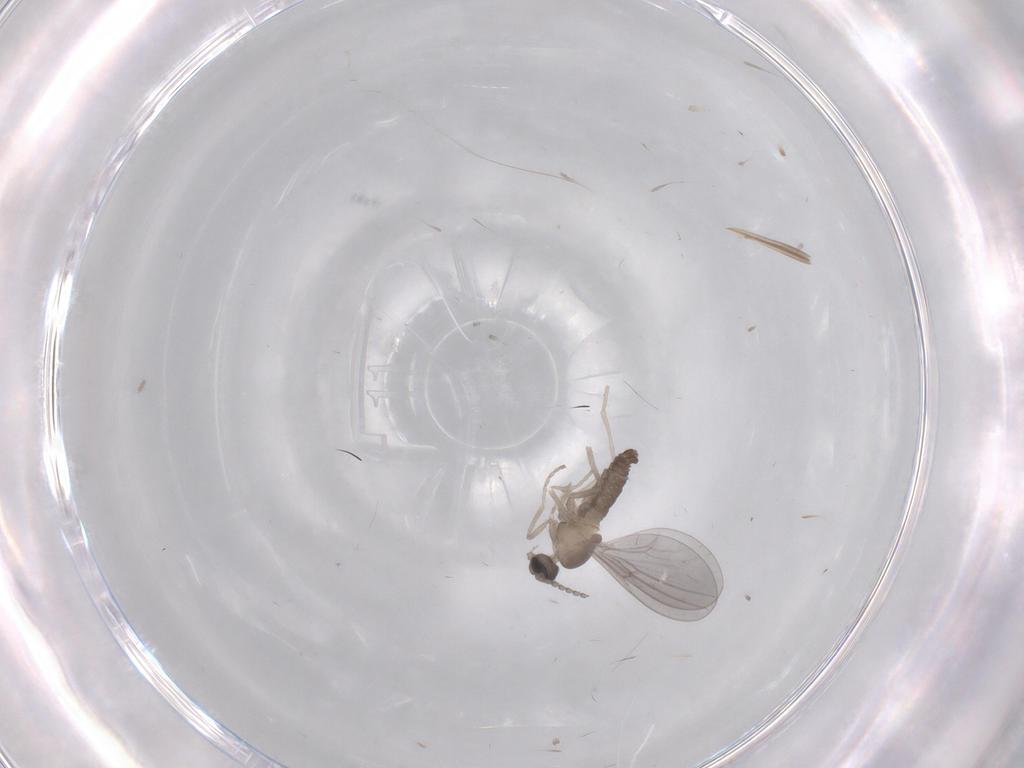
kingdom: Animalia
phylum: Arthropoda
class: Insecta
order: Diptera
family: Cecidomyiidae
